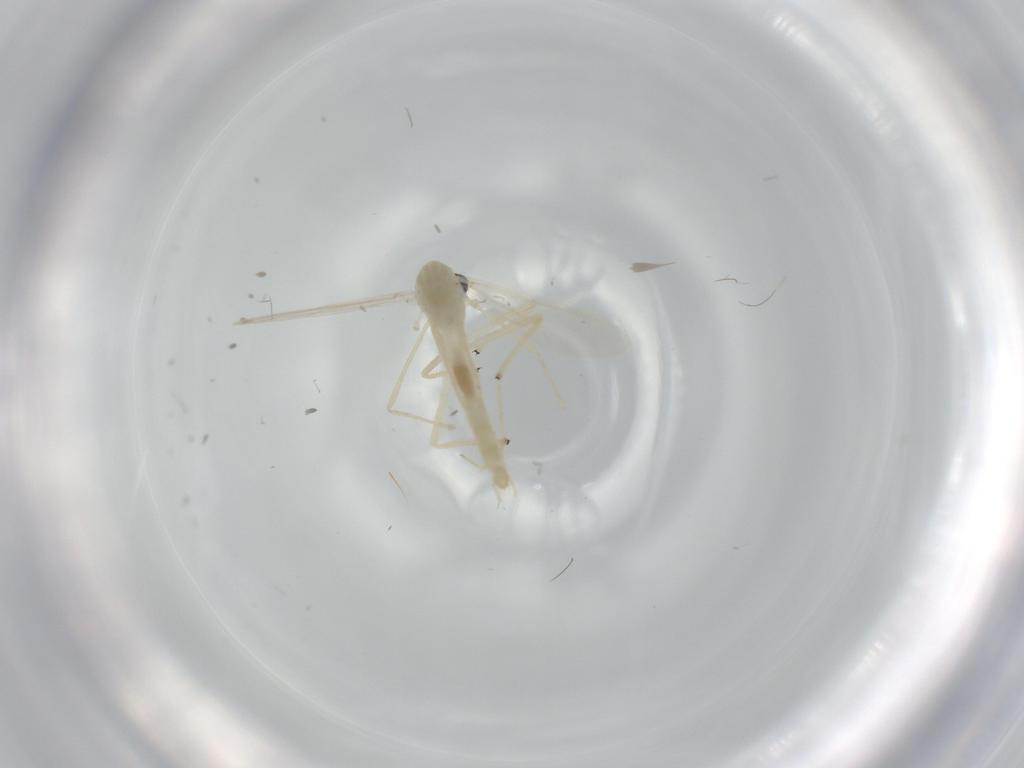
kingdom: Animalia
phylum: Arthropoda
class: Insecta
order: Diptera
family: Chironomidae
